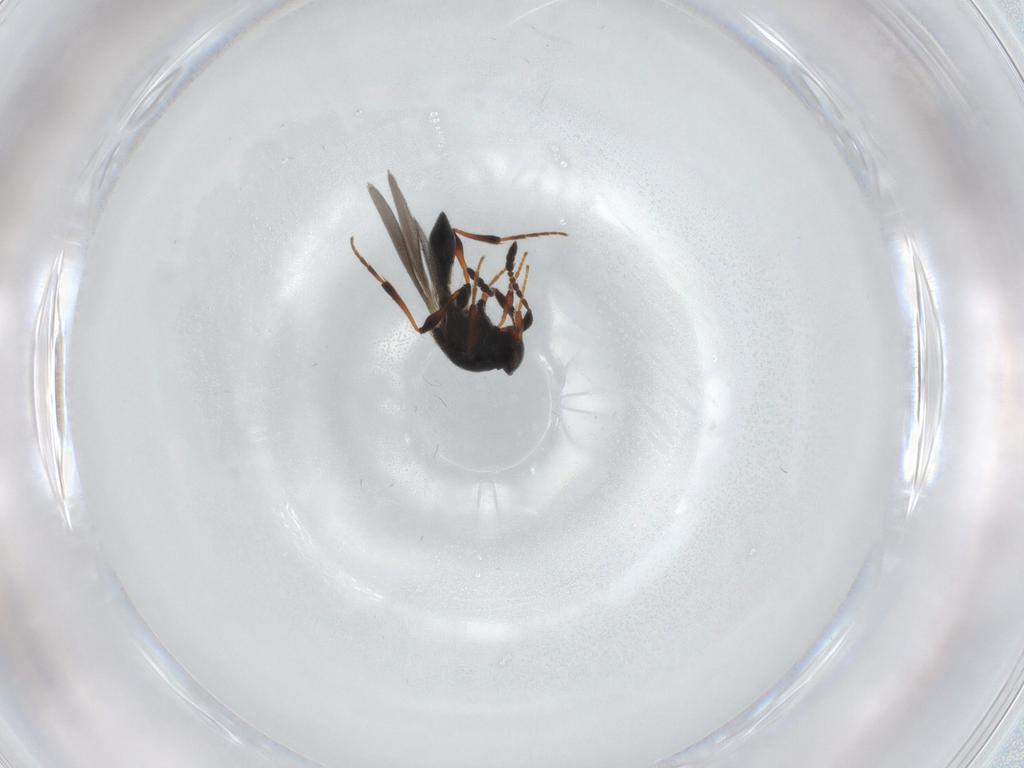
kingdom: Animalia
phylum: Arthropoda
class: Insecta
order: Hymenoptera
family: Platygastridae
